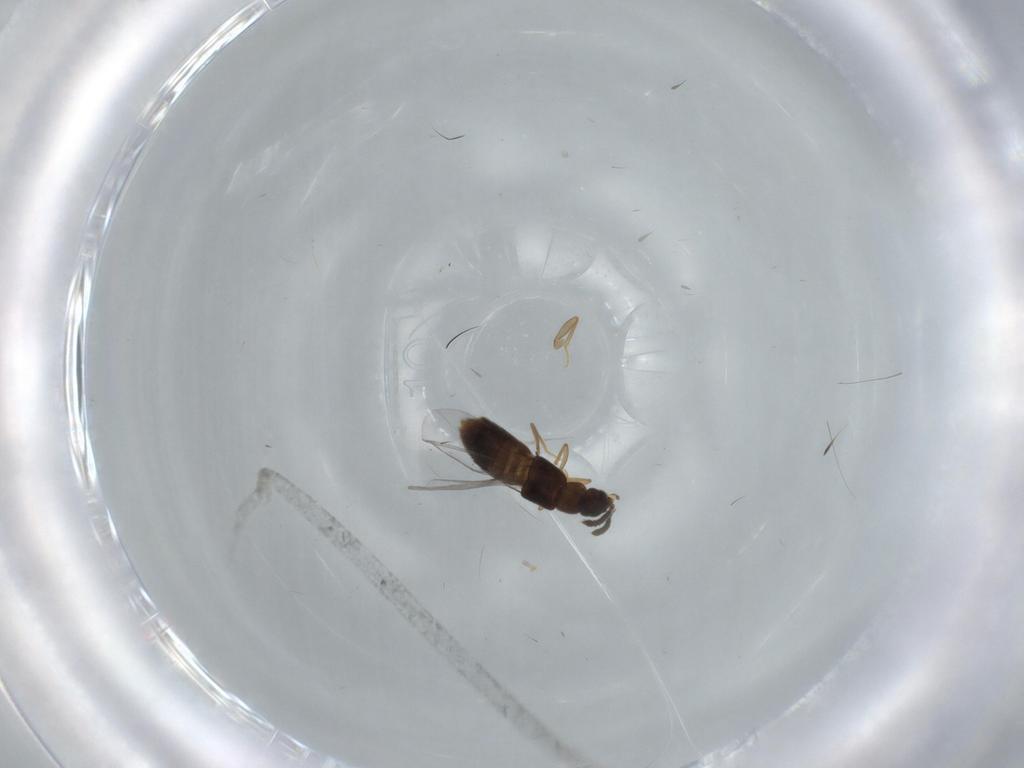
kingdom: Animalia
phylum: Arthropoda
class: Insecta
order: Coleoptera
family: Staphylinidae
